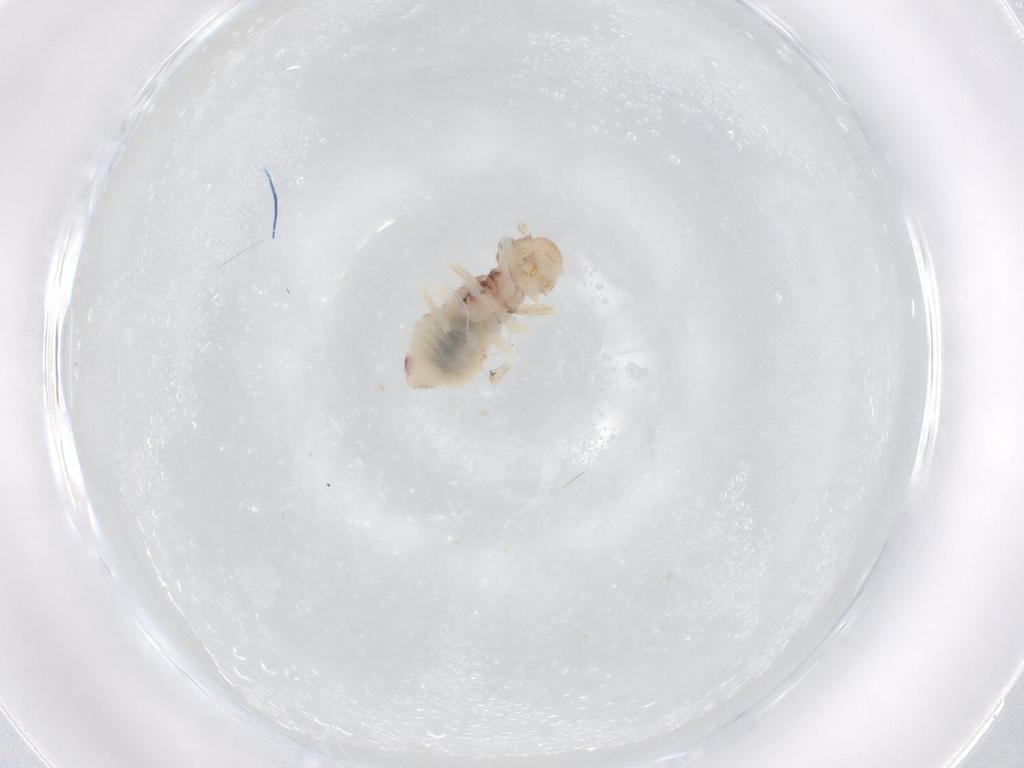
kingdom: Animalia
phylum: Arthropoda
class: Insecta
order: Psocodea
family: Amphipsocidae
